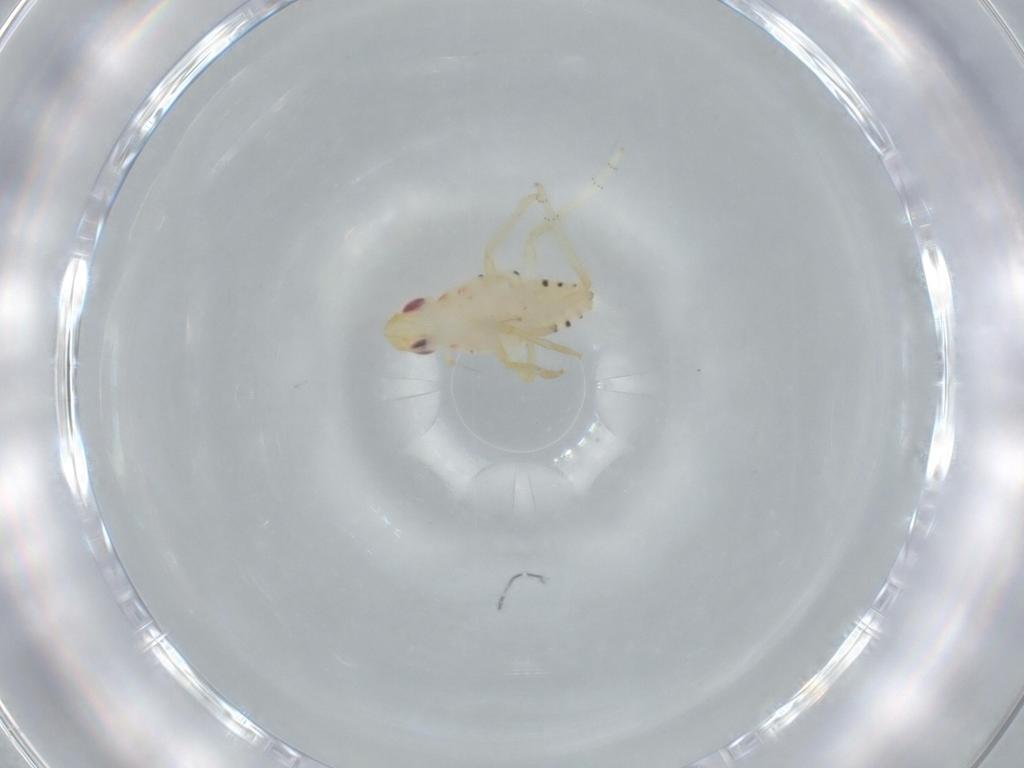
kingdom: Animalia
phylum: Arthropoda
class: Insecta
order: Hemiptera
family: Tropiduchidae
